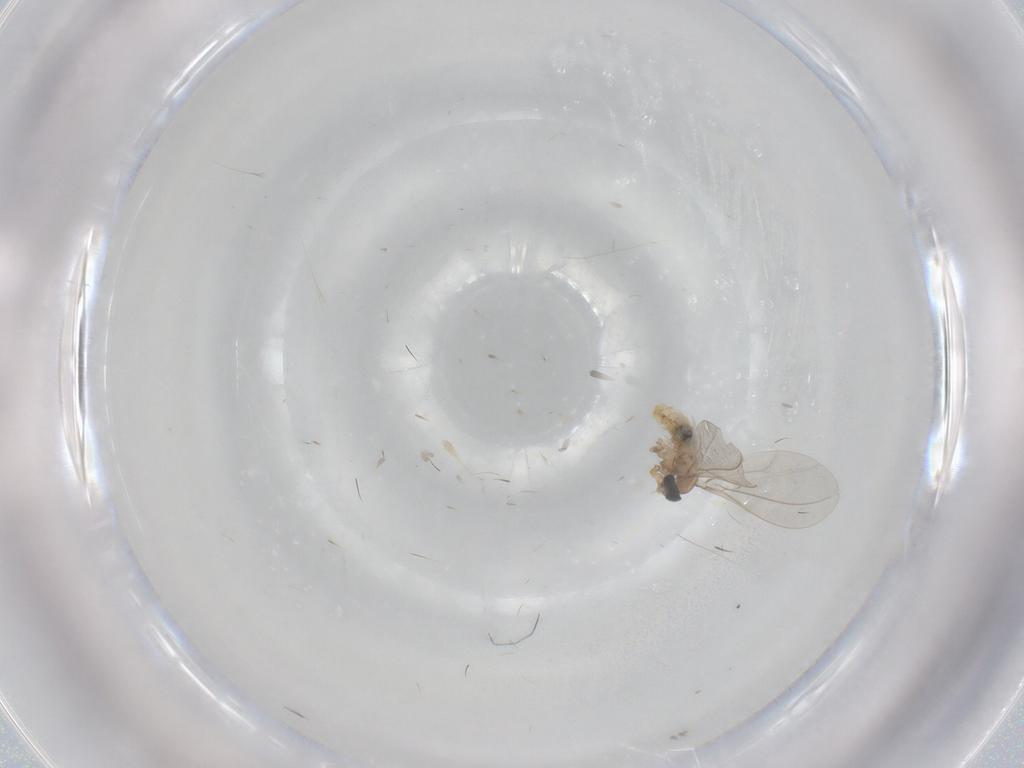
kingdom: Animalia
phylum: Arthropoda
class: Insecta
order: Diptera
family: Cecidomyiidae
